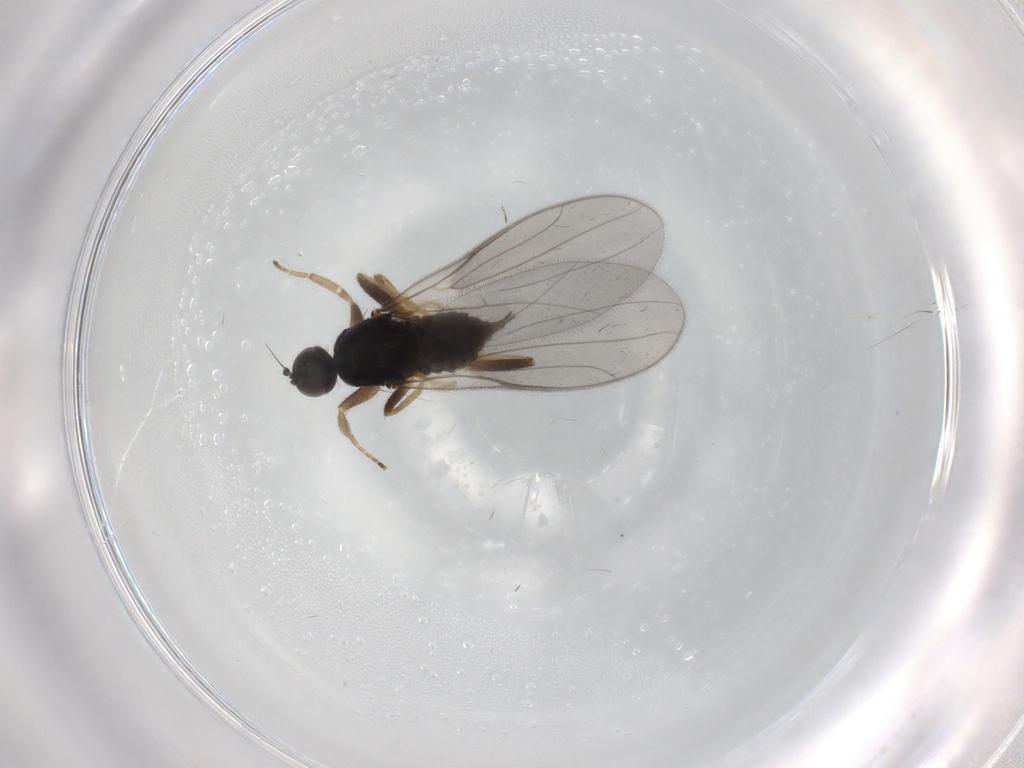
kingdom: Animalia
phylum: Arthropoda
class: Insecta
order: Diptera
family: Hybotidae
